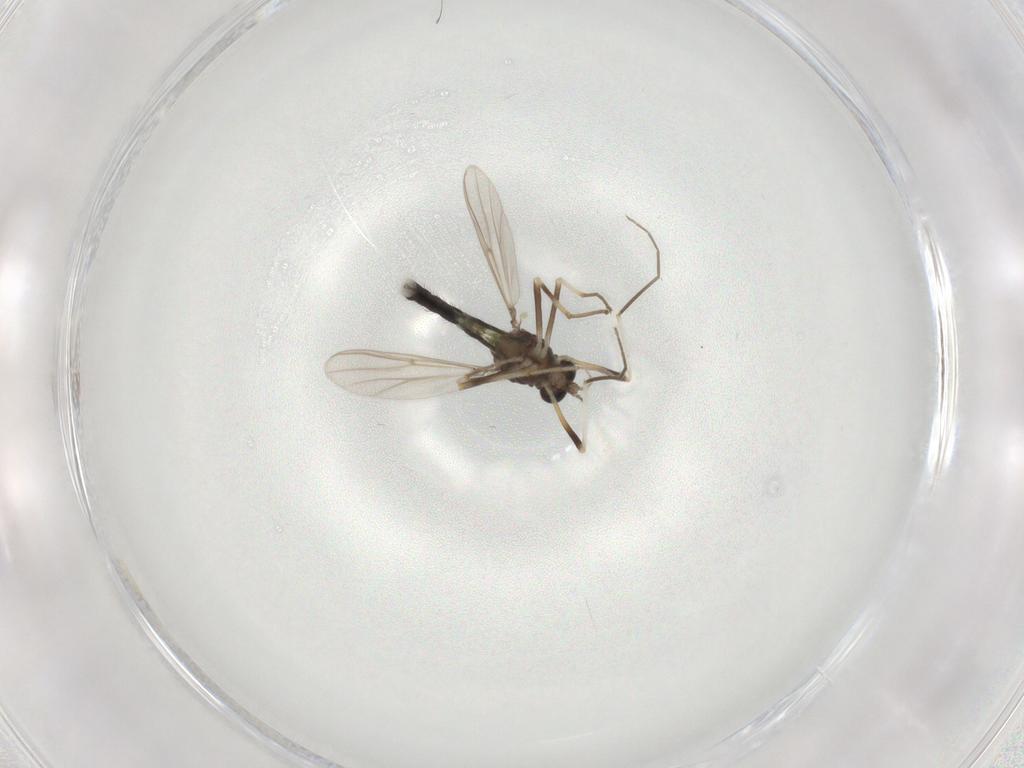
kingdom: Animalia
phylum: Arthropoda
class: Insecta
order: Diptera
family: Chironomidae
